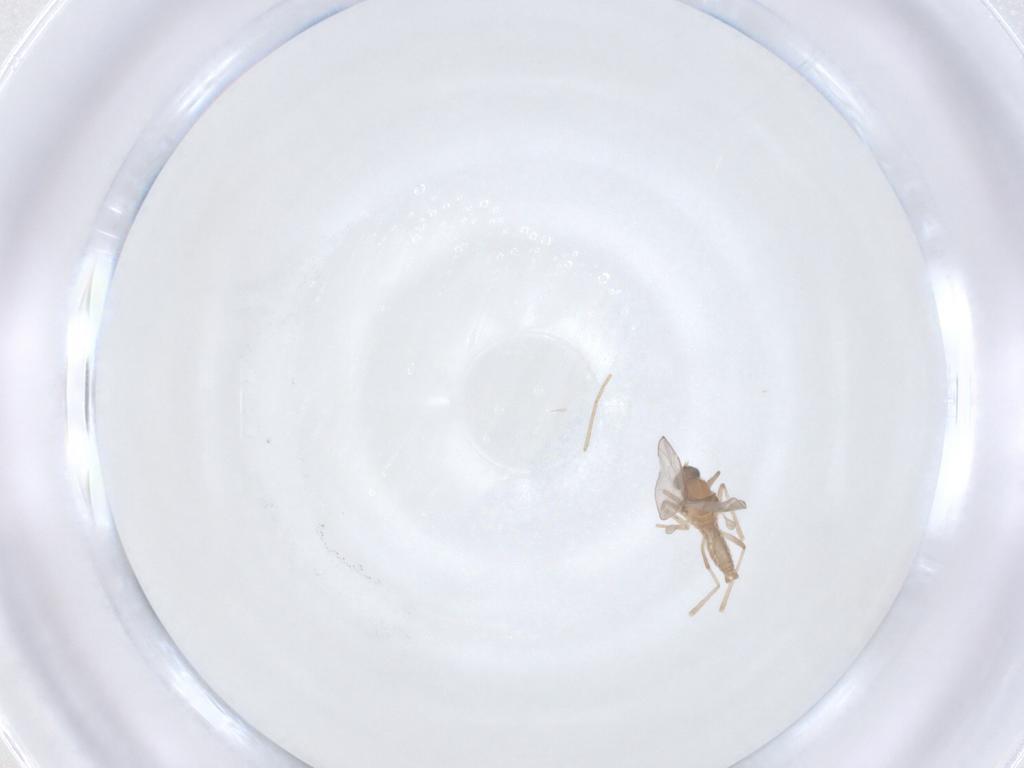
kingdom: Animalia
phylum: Arthropoda
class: Insecta
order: Diptera
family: Cecidomyiidae
